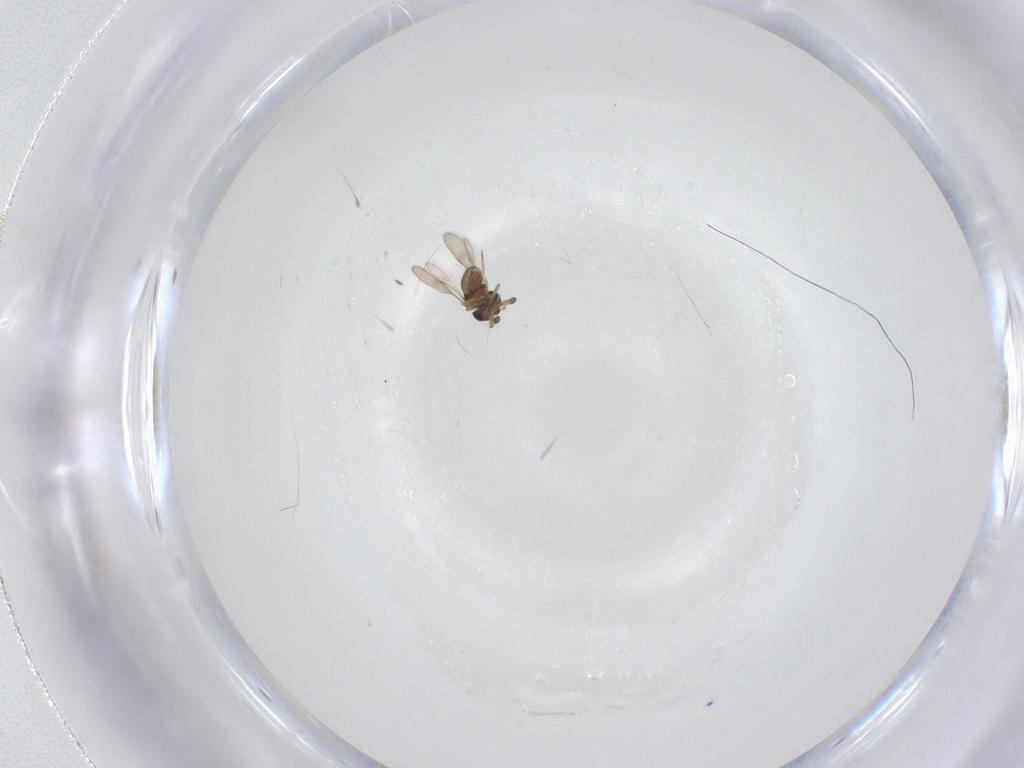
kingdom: Animalia
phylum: Arthropoda
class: Insecta
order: Hymenoptera
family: Scelionidae
